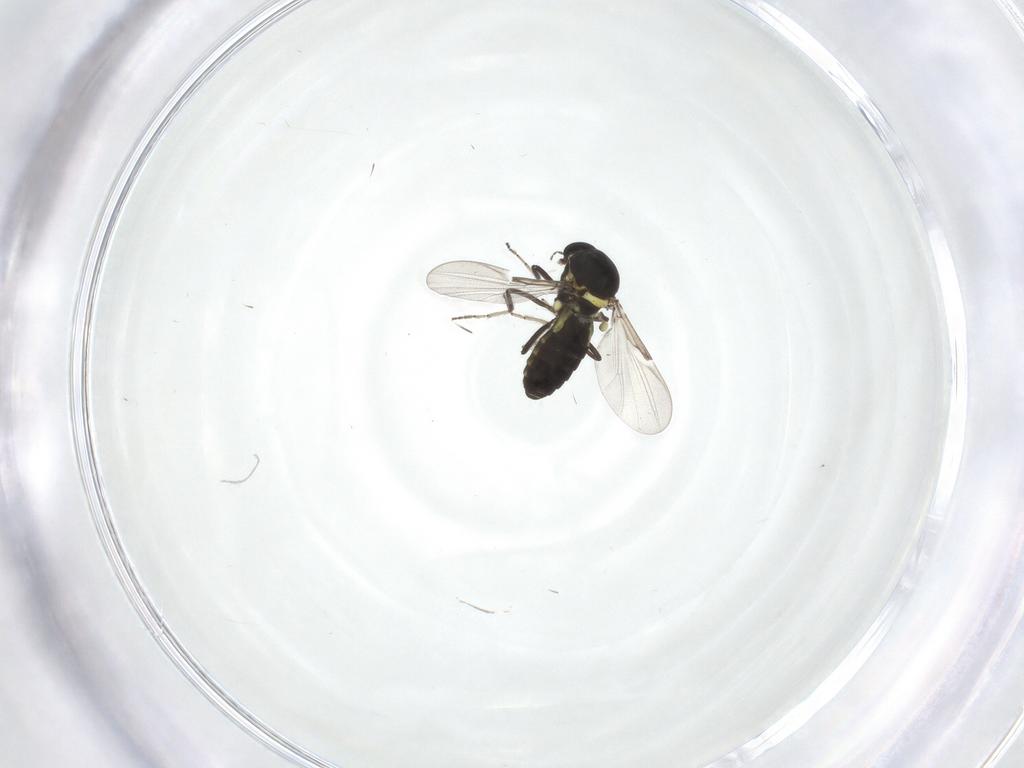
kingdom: Animalia
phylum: Arthropoda
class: Insecta
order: Diptera
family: Ceratopogonidae
